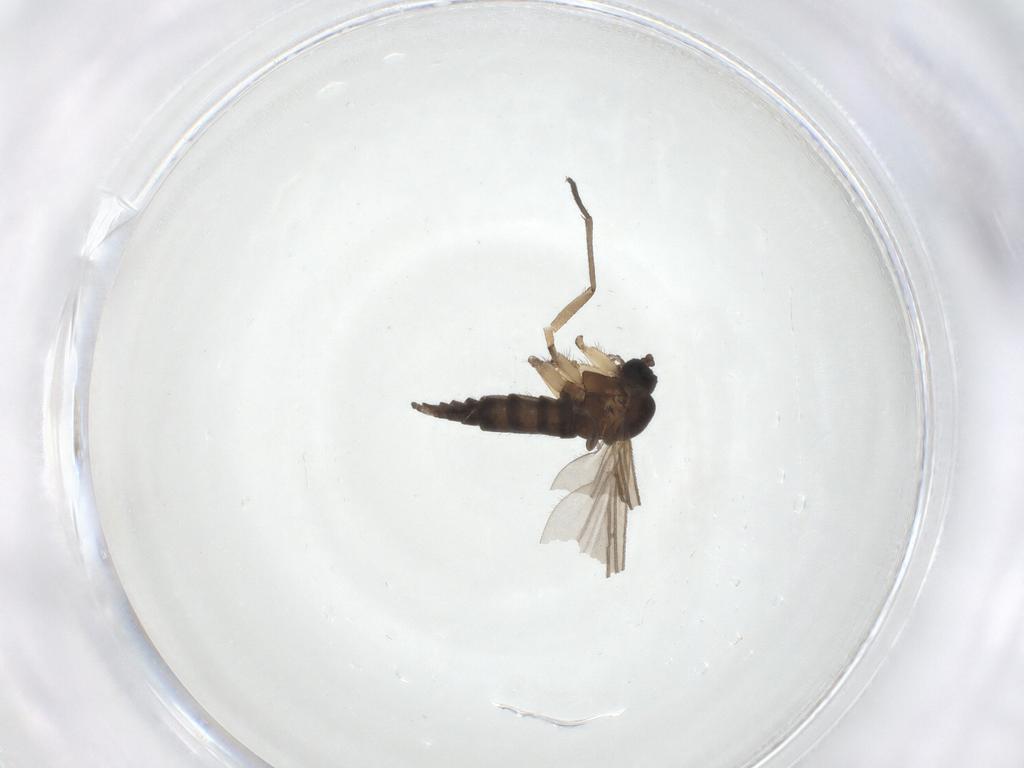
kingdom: Animalia
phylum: Arthropoda
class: Insecta
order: Diptera
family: Sciaridae
